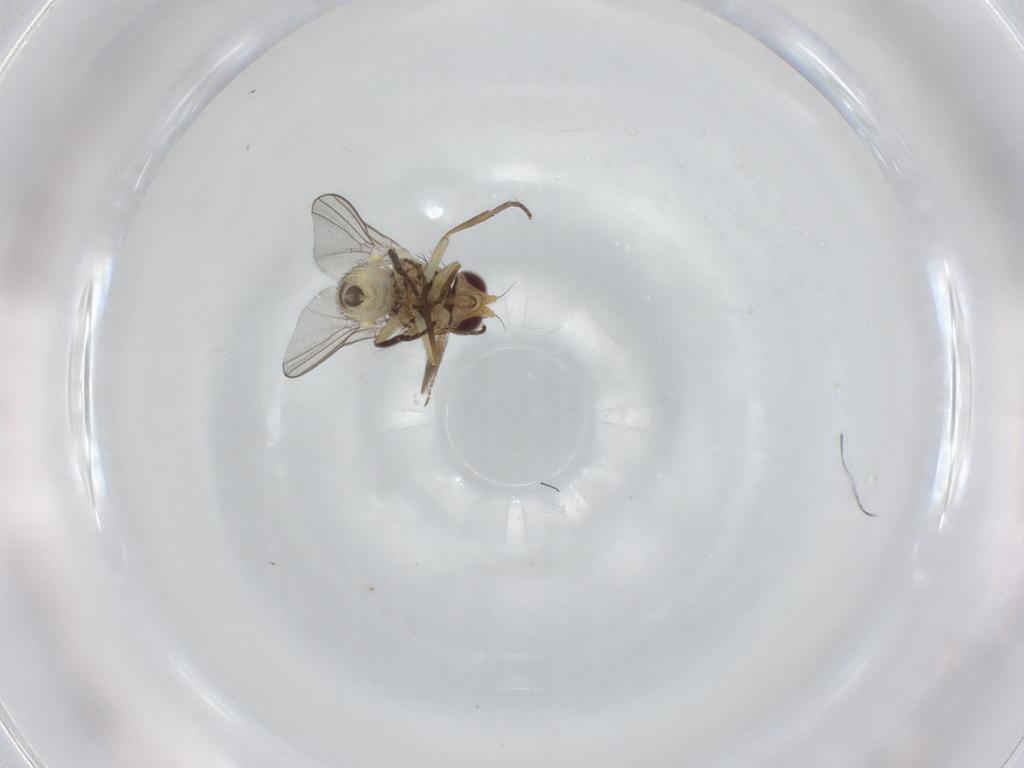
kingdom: Animalia
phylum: Arthropoda
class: Insecta
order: Diptera
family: Agromyzidae
